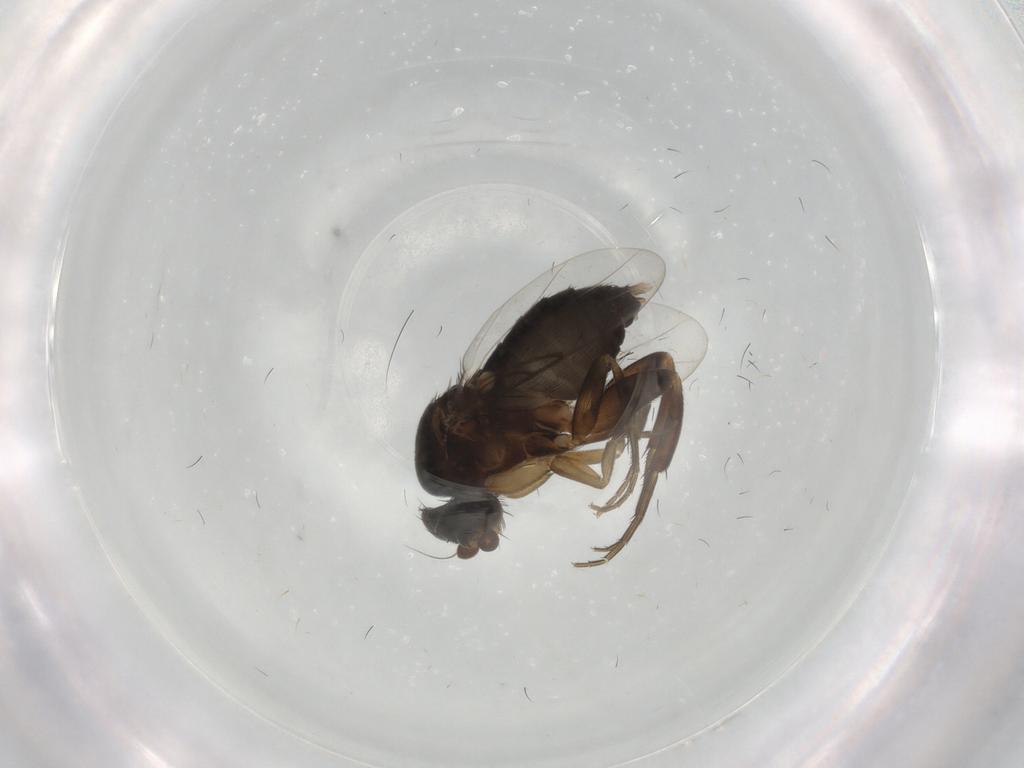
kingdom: Animalia
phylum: Arthropoda
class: Insecta
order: Diptera
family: Phoridae
